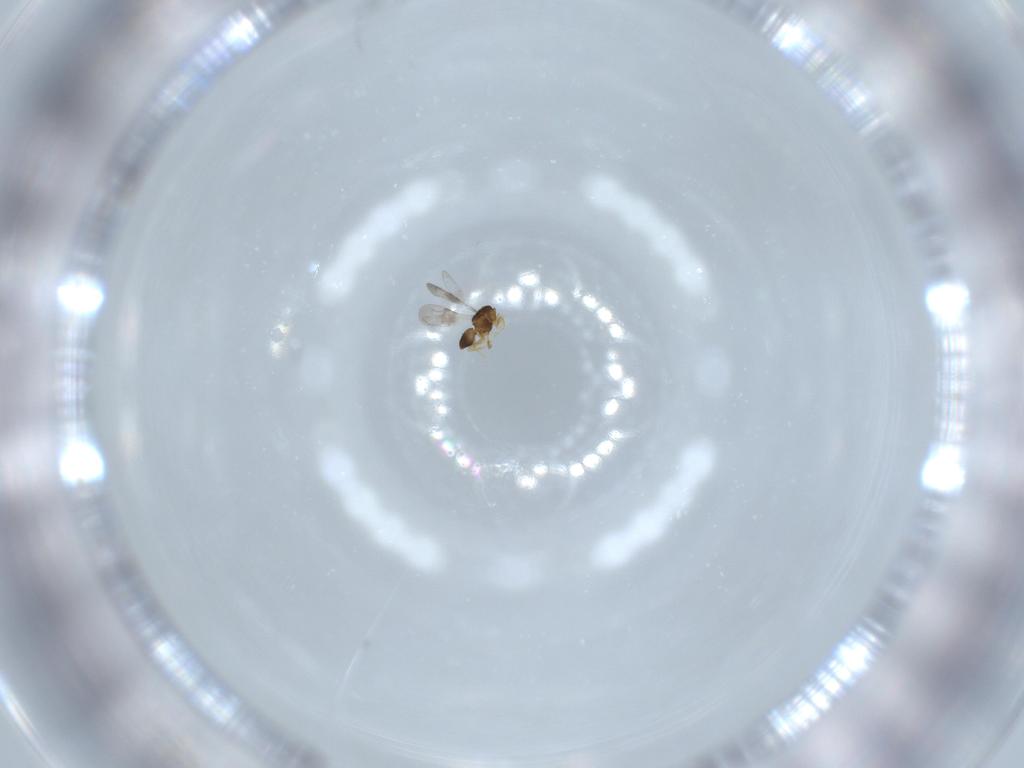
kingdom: Animalia
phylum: Arthropoda
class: Insecta
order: Hymenoptera
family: Ceraphronidae
